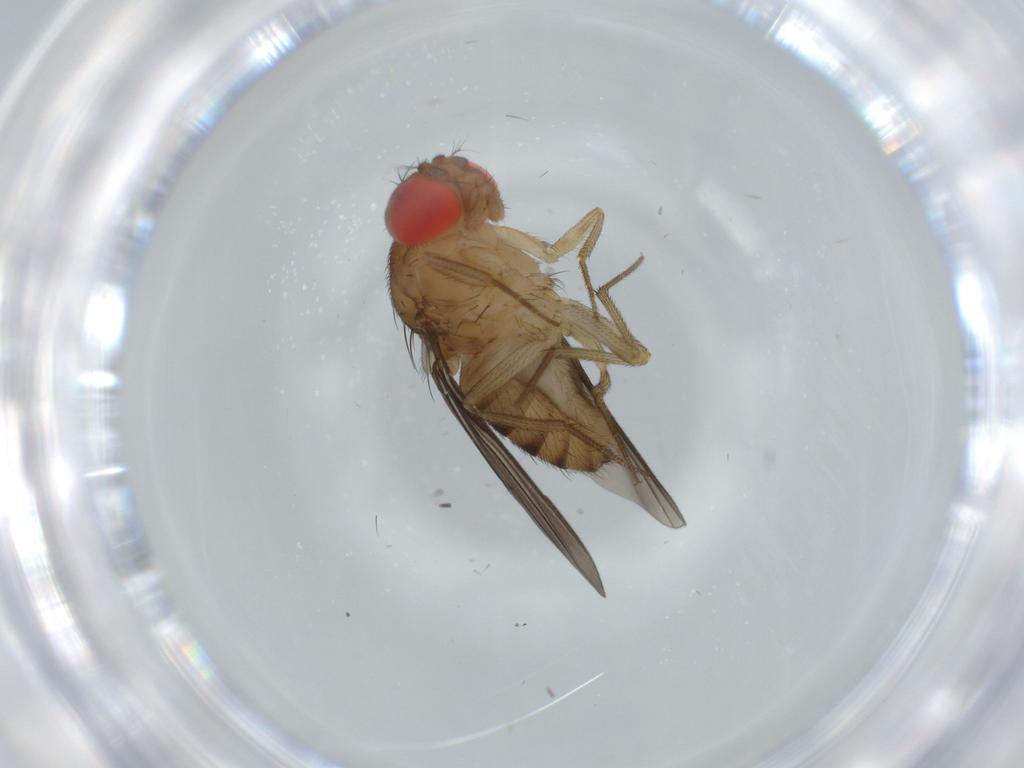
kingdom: Animalia
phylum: Arthropoda
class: Insecta
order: Diptera
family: Drosophilidae
